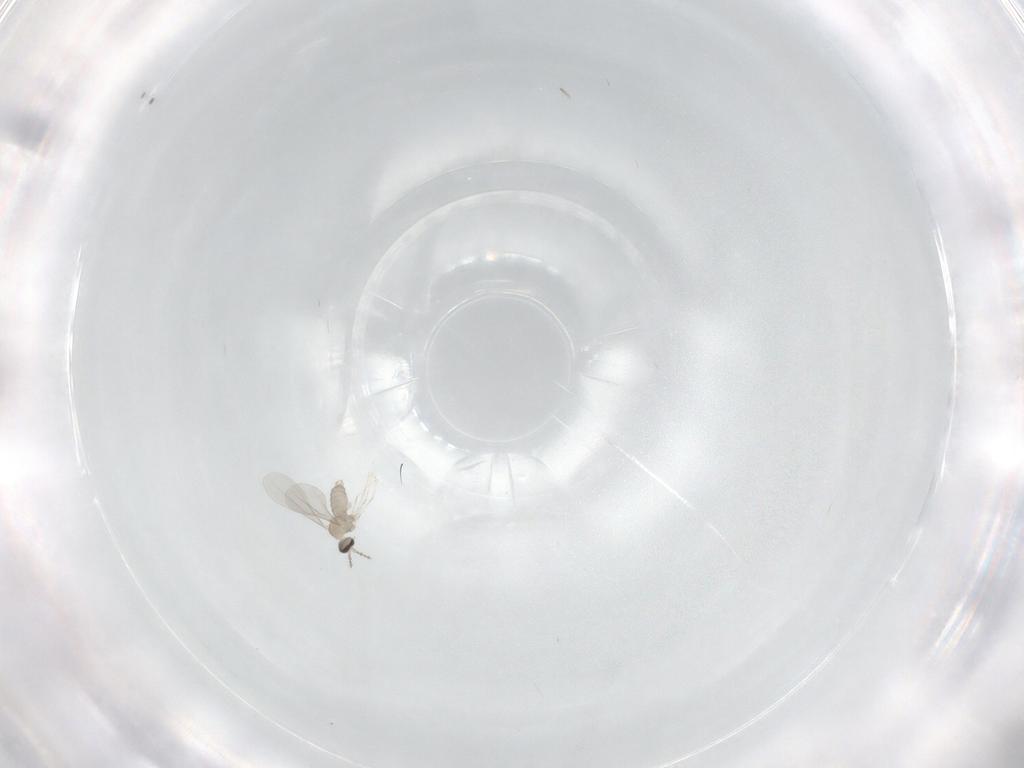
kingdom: Animalia
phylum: Arthropoda
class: Insecta
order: Diptera
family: Cecidomyiidae
